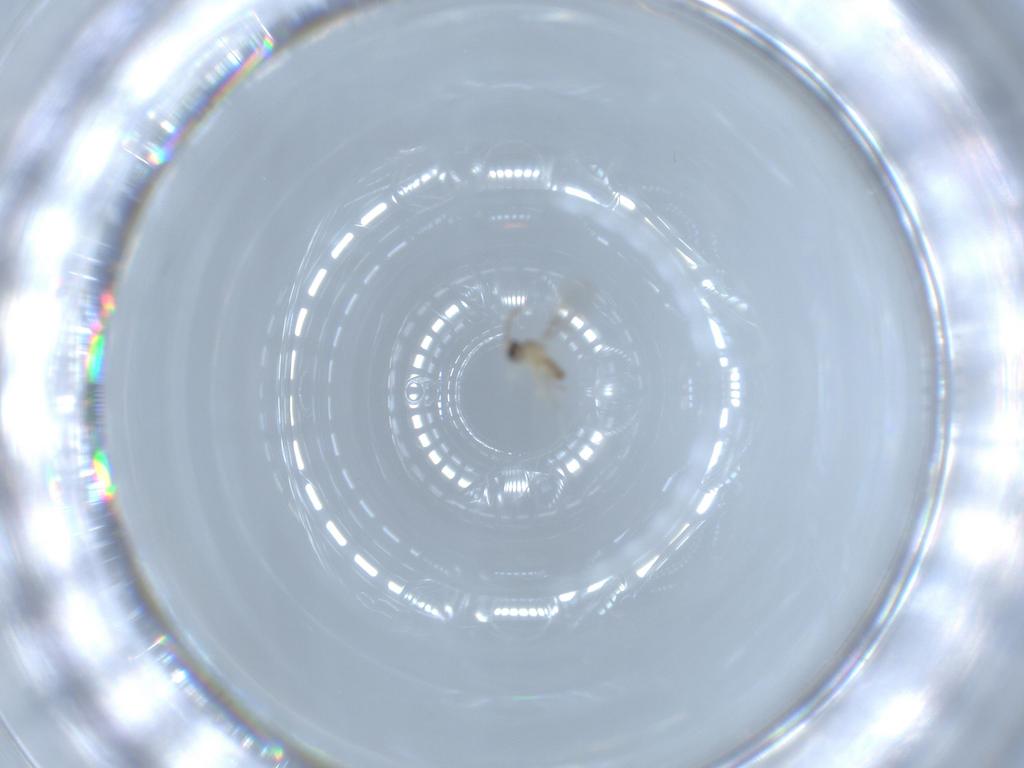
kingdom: Animalia
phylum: Arthropoda
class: Insecta
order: Diptera
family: Cecidomyiidae
